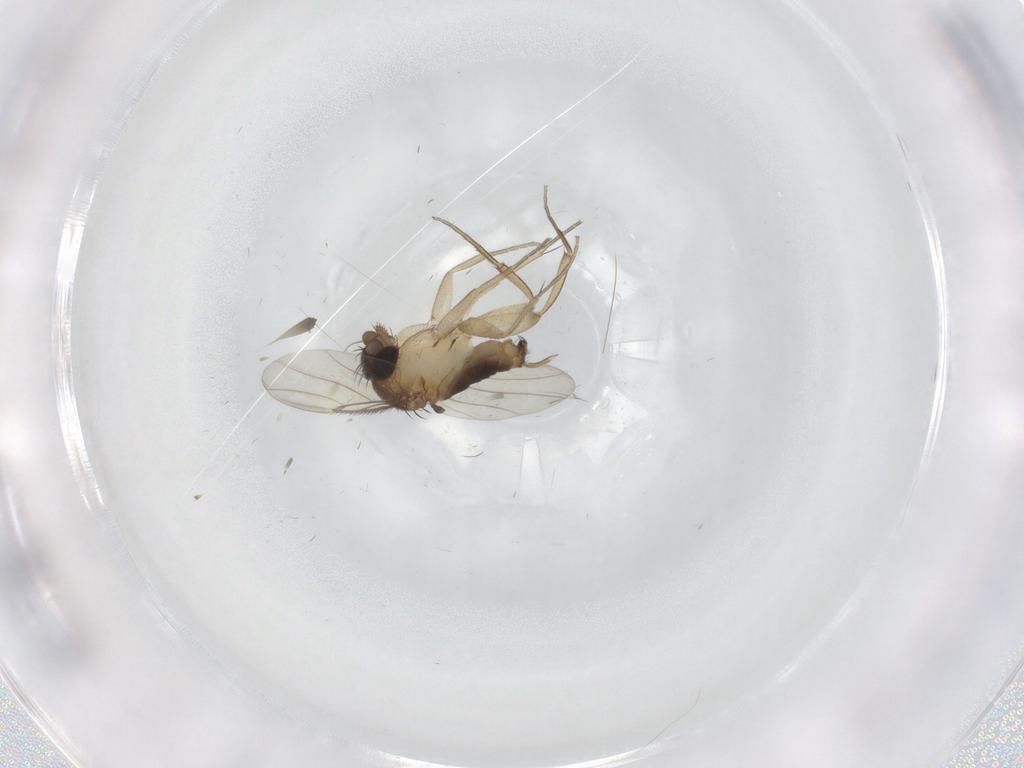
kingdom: Animalia
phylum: Arthropoda
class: Insecta
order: Diptera
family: Phoridae
